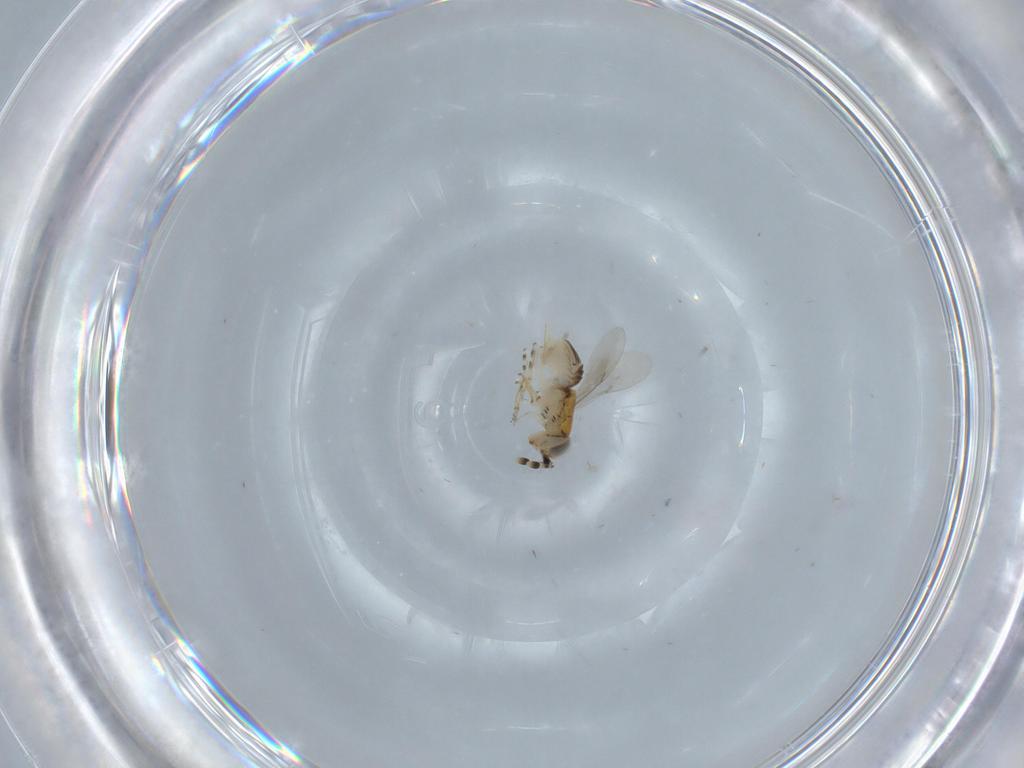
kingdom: Animalia
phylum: Arthropoda
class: Insecta
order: Hymenoptera
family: Encyrtidae
